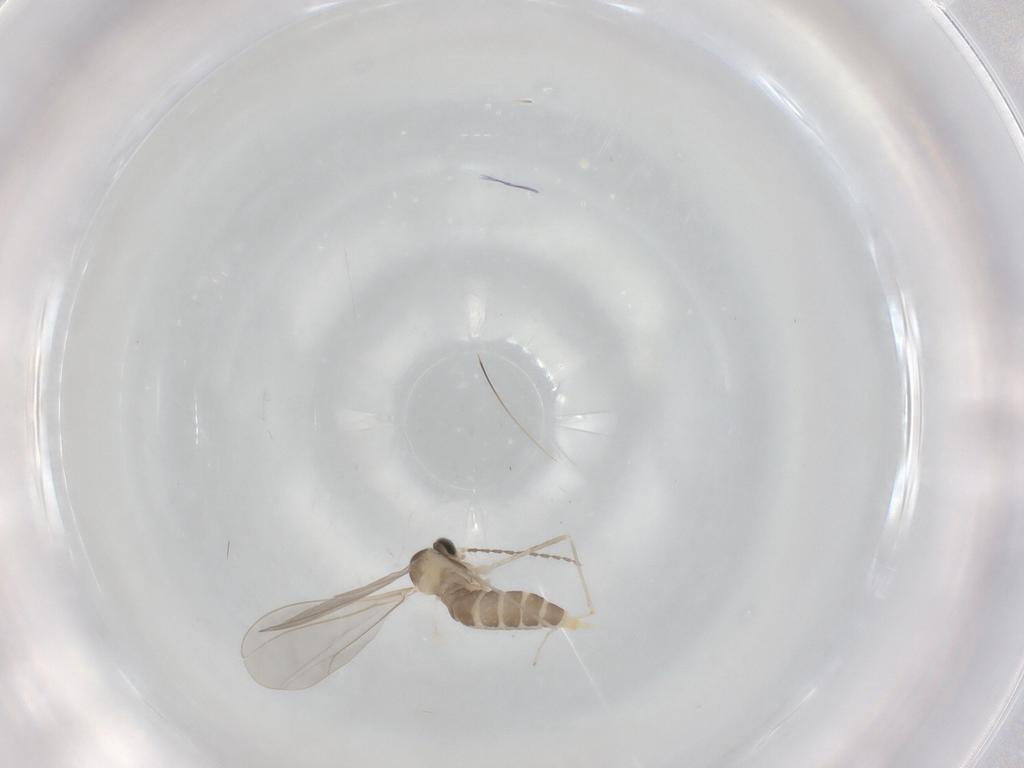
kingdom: Animalia
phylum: Arthropoda
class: Insecta
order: Diptera
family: Cecidomyiidae
